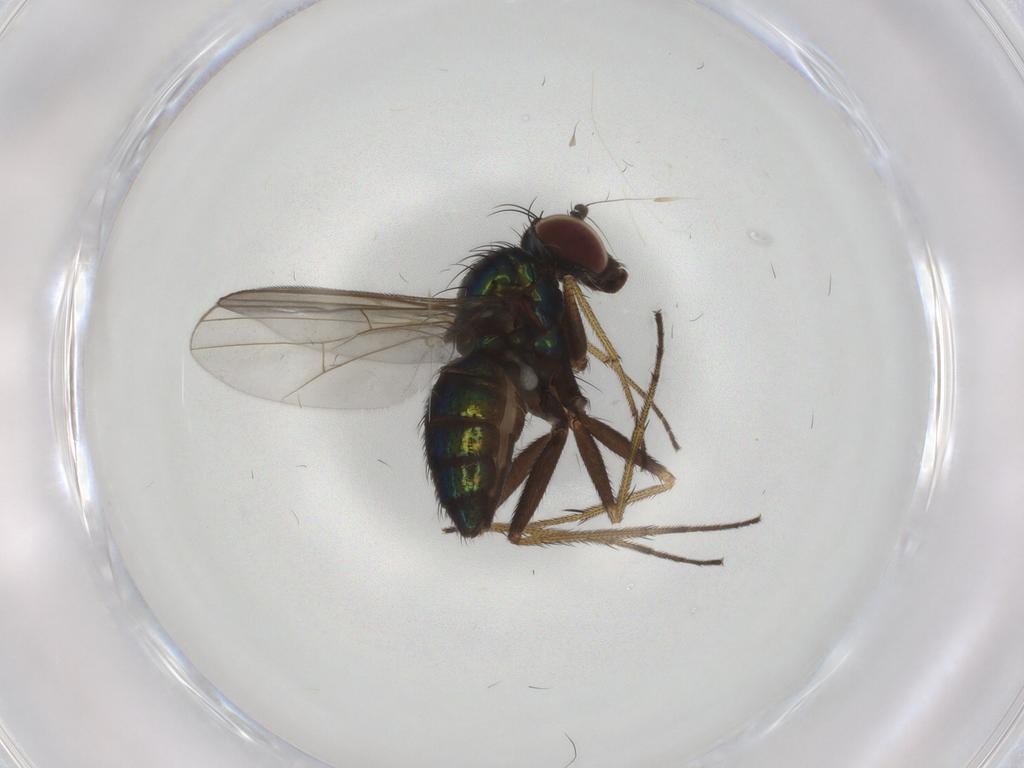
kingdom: Animalia
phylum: Arthropoda
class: Insecta
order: Diptera
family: Dolichopodidae
